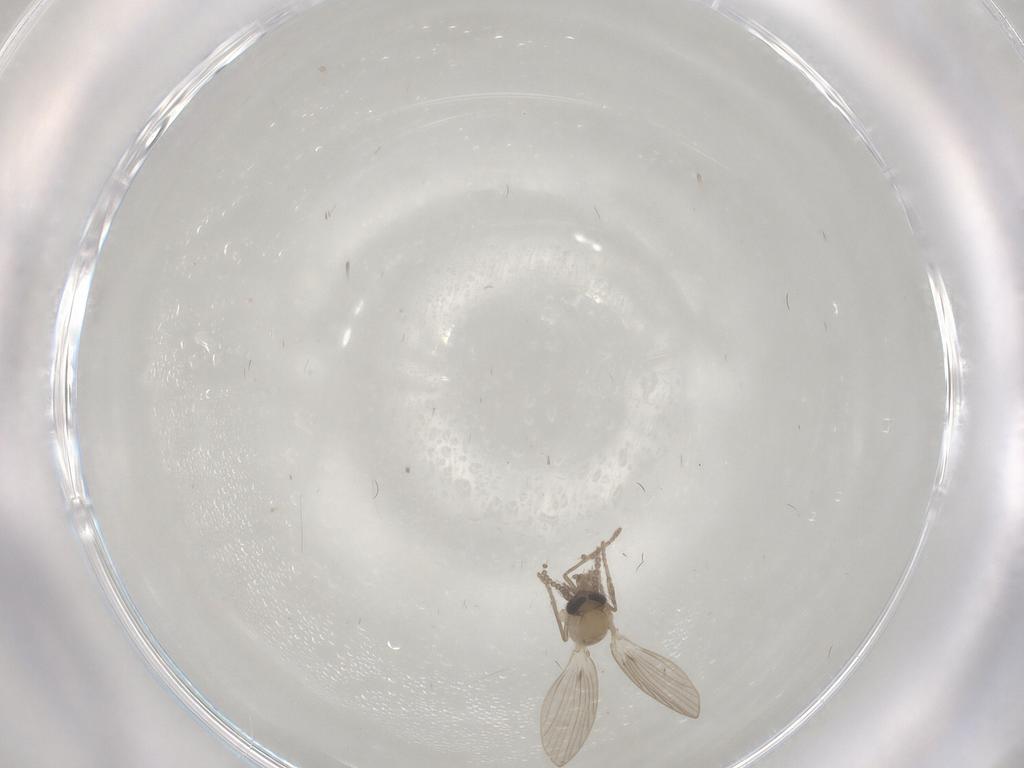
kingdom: Animalia
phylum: Arthropoda
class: Insecta
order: Diptera
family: Psychodidae
